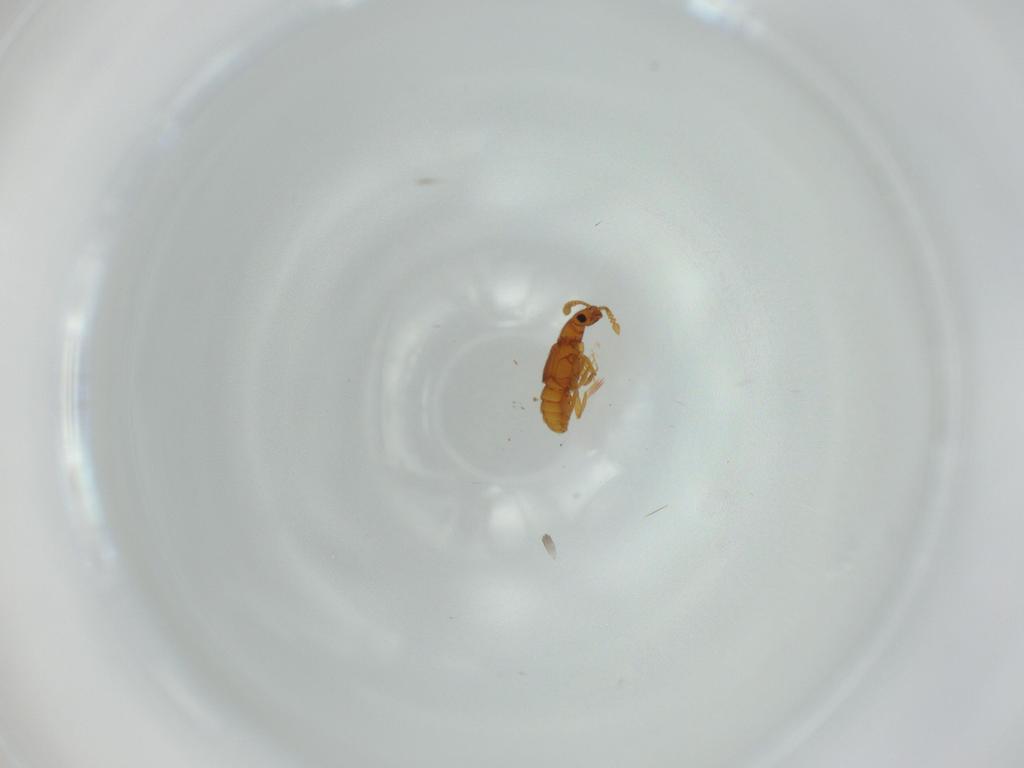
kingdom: Animalia
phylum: Arthropoda
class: Insecta
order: Coleoptera
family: Staphylinidae
